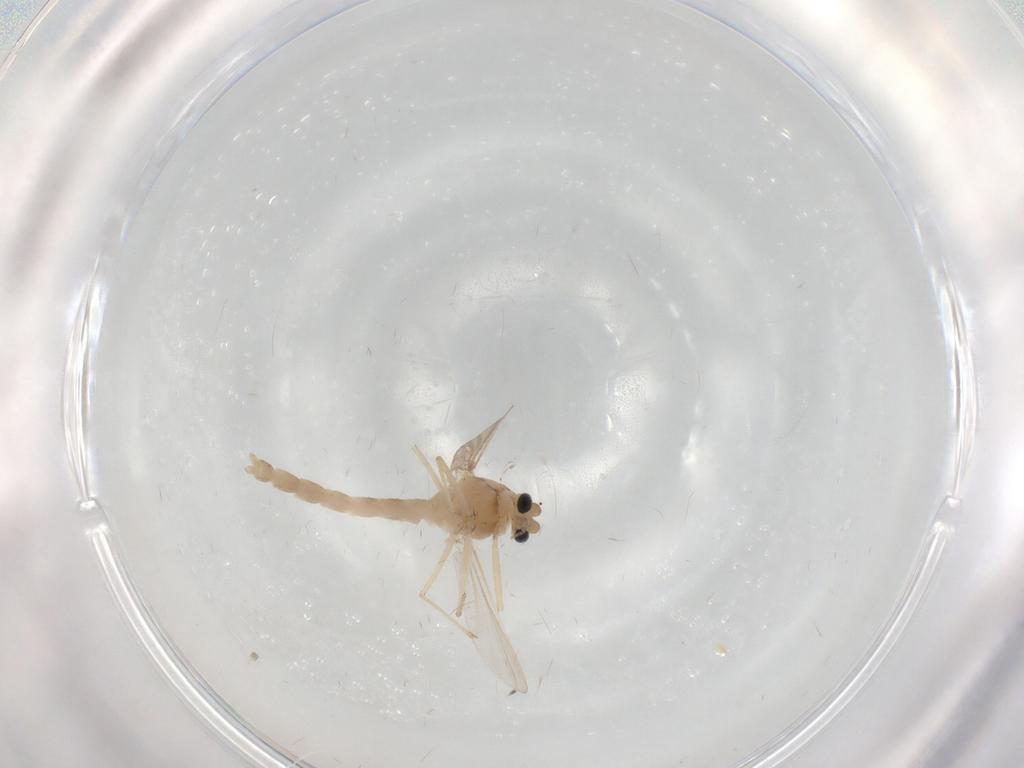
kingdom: Animalia
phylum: Arthropoda
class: Insecta
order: Diptera
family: Chironomidae
